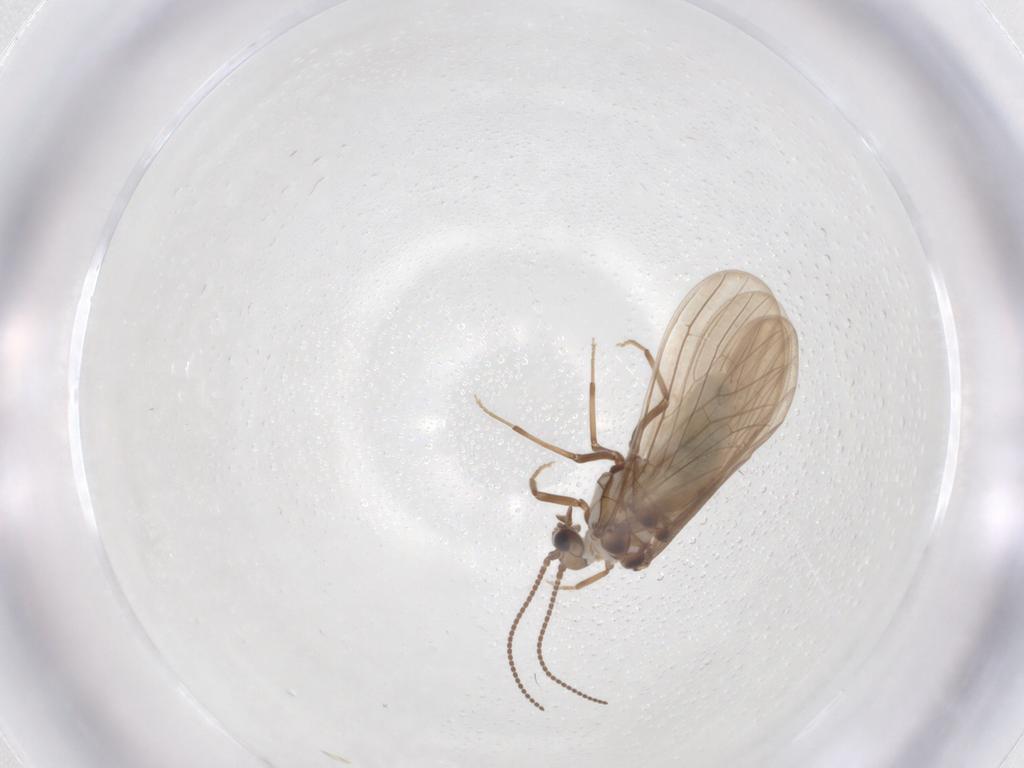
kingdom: Animalia
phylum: Arthropoda
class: Insecta
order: Neuroptera
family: Coniopterygidae
